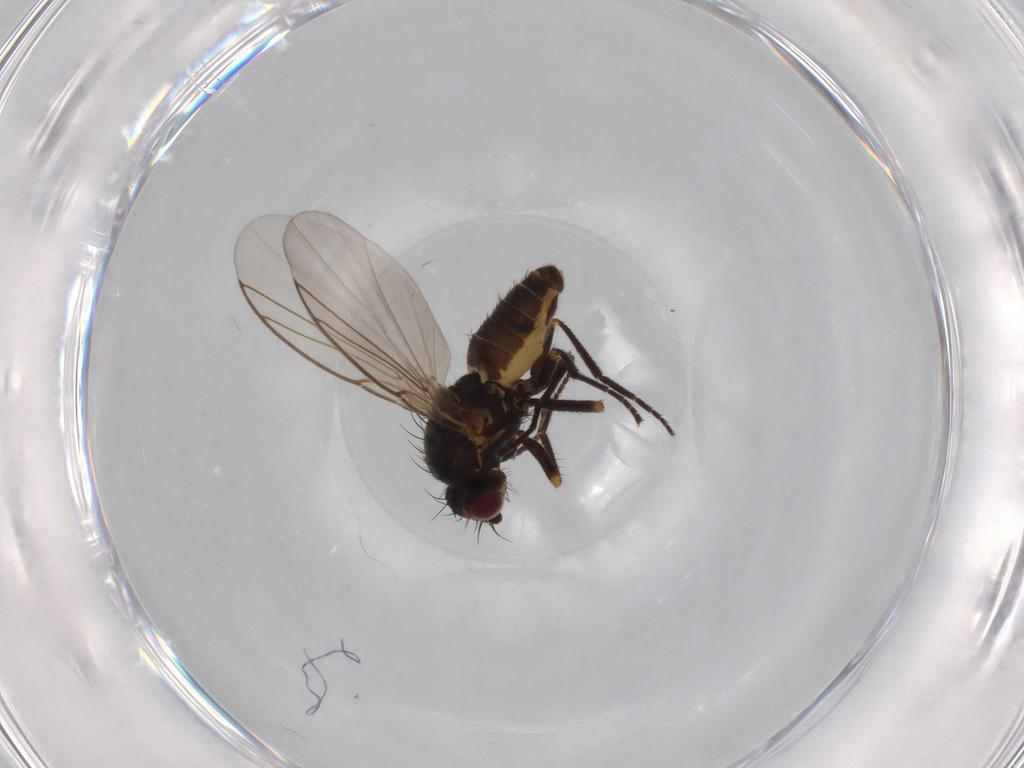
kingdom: Animalia
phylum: Arthropoda
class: Insecta
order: Diptera
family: Agromyzidae
